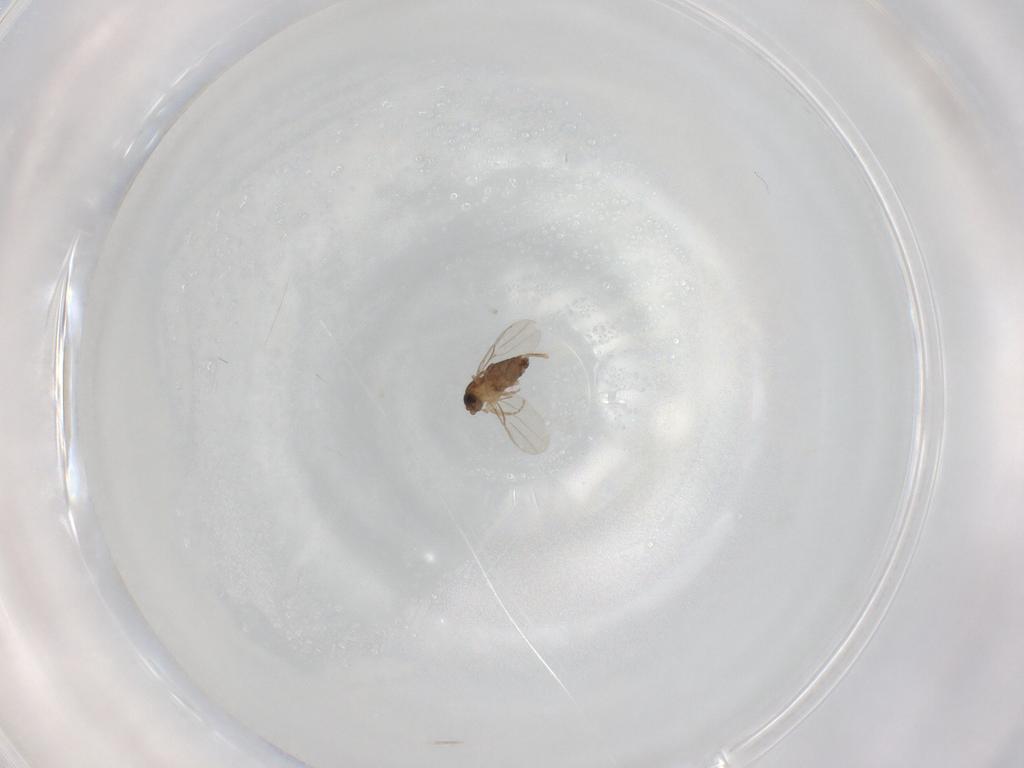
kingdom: Animalia
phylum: Arthropoda
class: Insecta
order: Diptera
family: Phoridae
